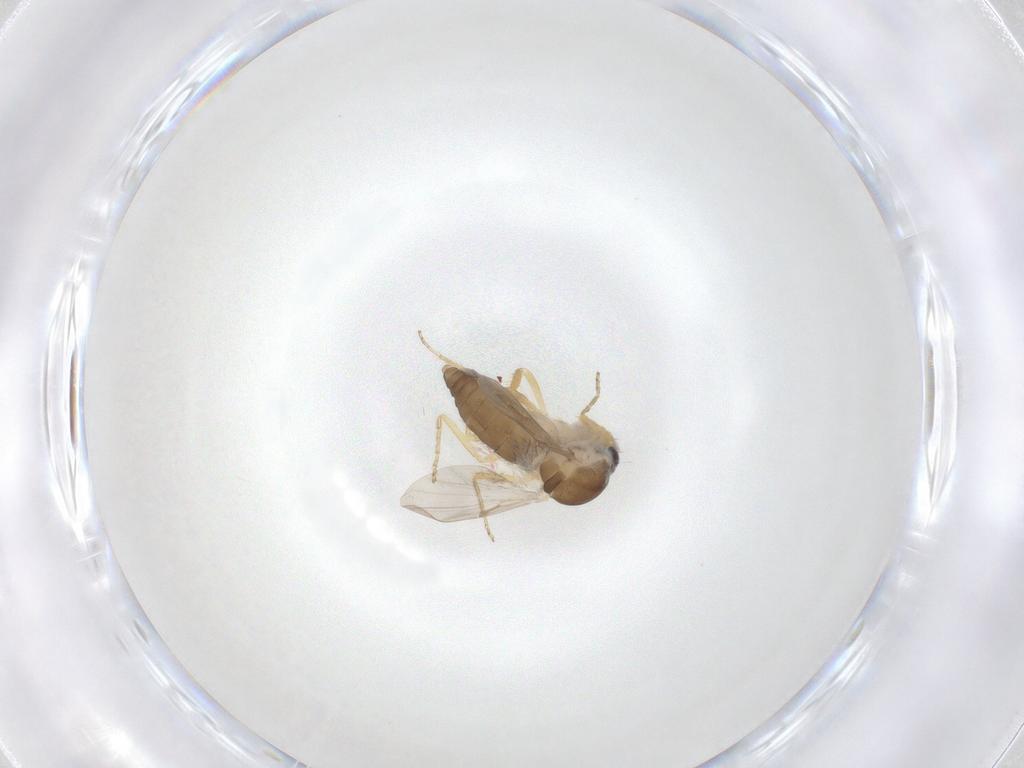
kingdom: Animalia
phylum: Arthropoda
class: Insecta
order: Diptera
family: Ceratopogonidae
